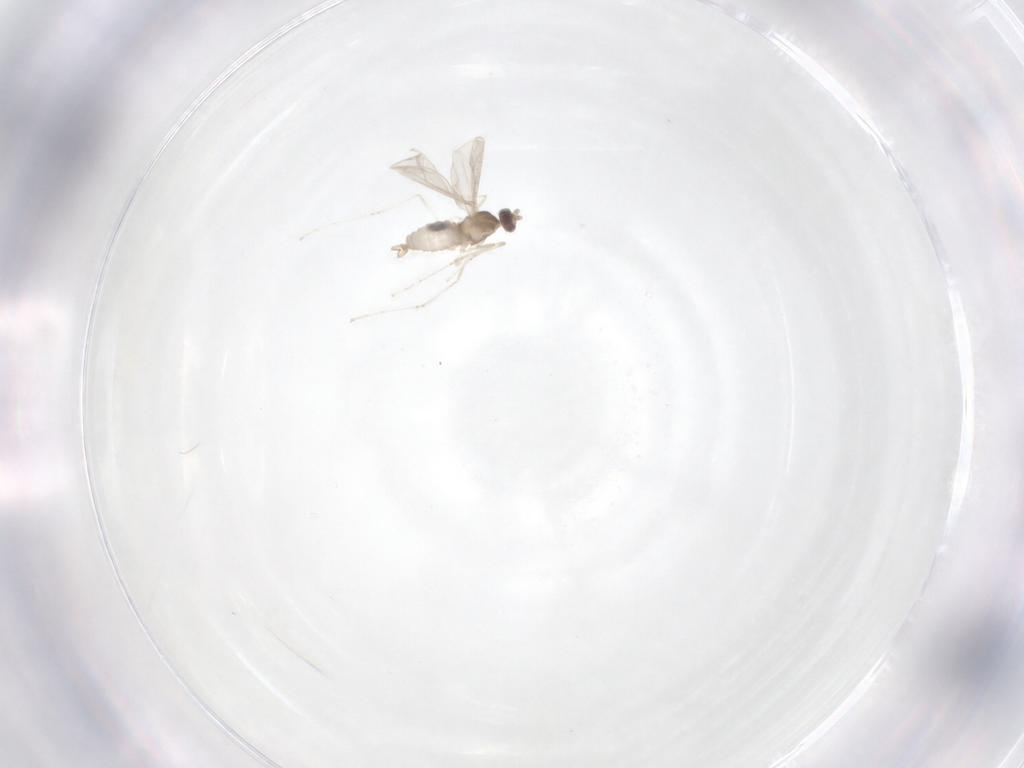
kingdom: Animalia
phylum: Arthropoda
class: Insecta
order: Diptera
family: Cecidomyiidae
